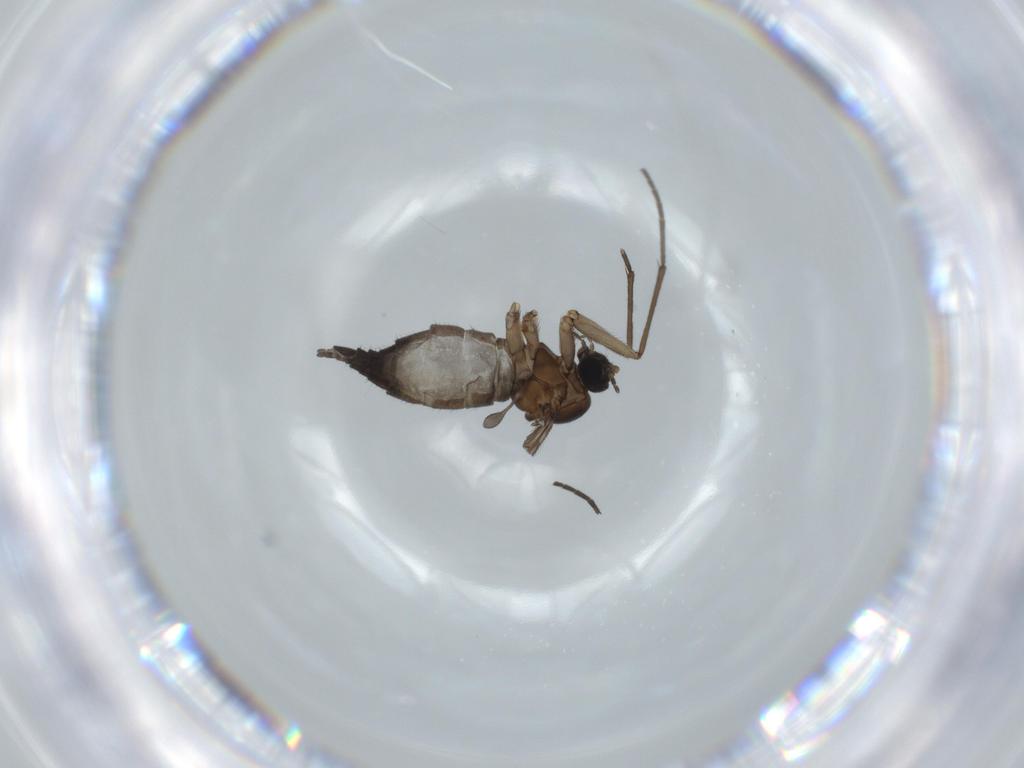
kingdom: Animalia
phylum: Arthropoda
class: Insecta
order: Diptera
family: Sciaridae
